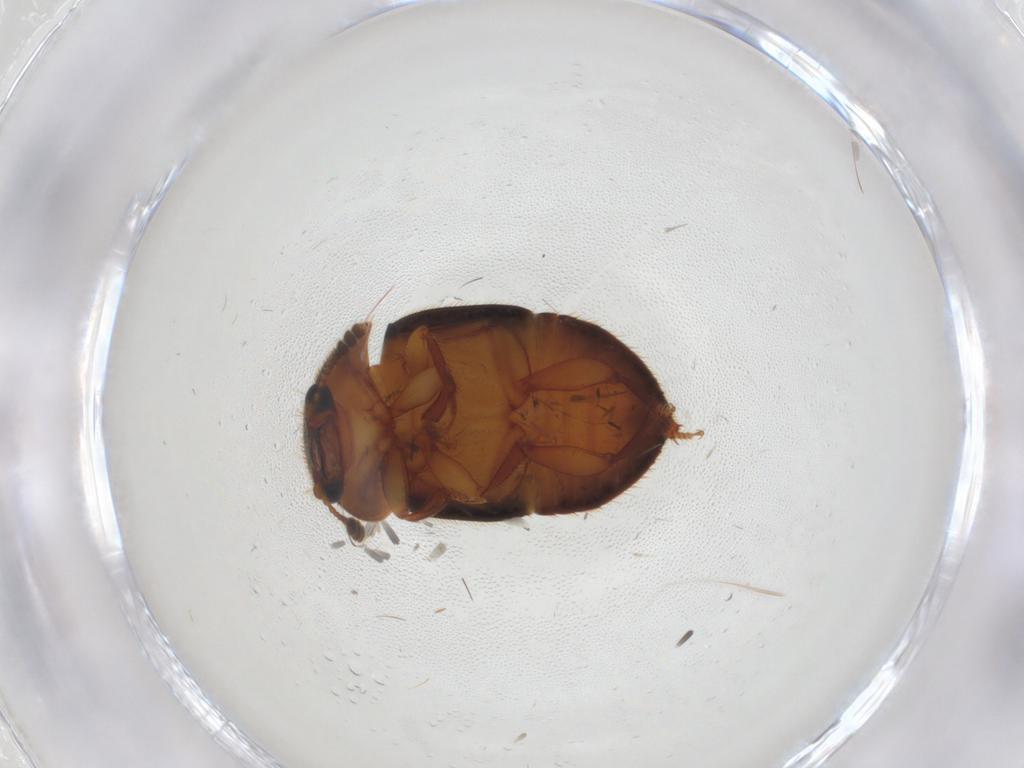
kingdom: Animalia
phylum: Arthropoda
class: Insecta
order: Coleoptera
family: Nitidulidae
